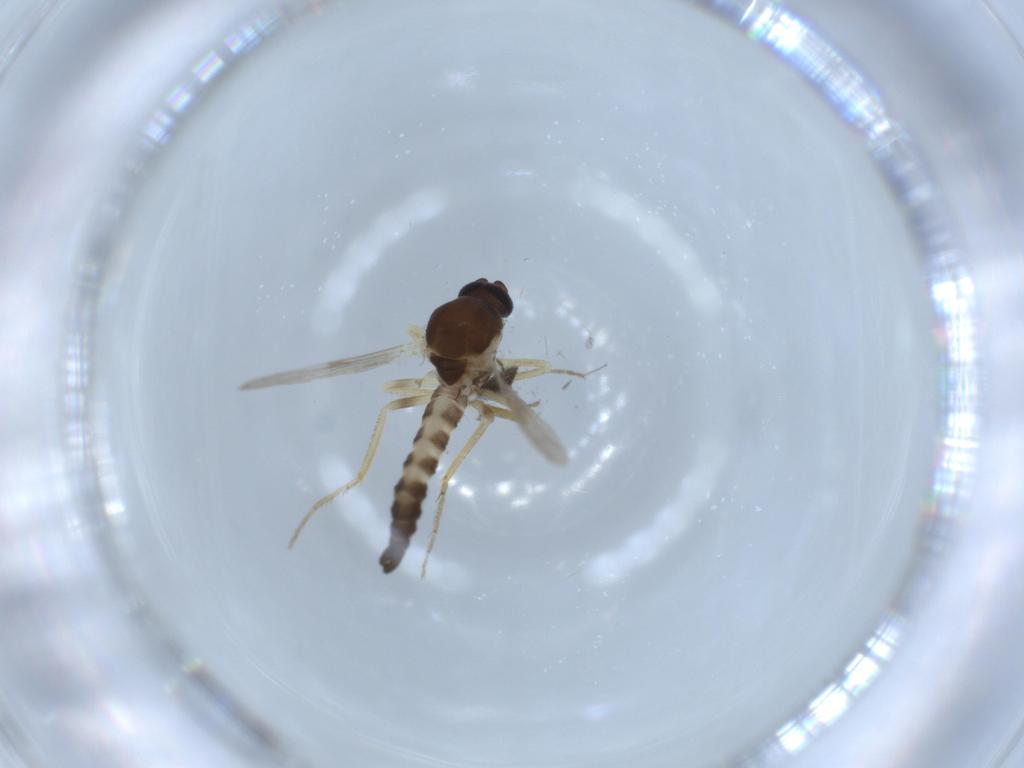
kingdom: Animalia
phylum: Arthropoda
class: Insecta
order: Diptera
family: Ceratopogonidae
